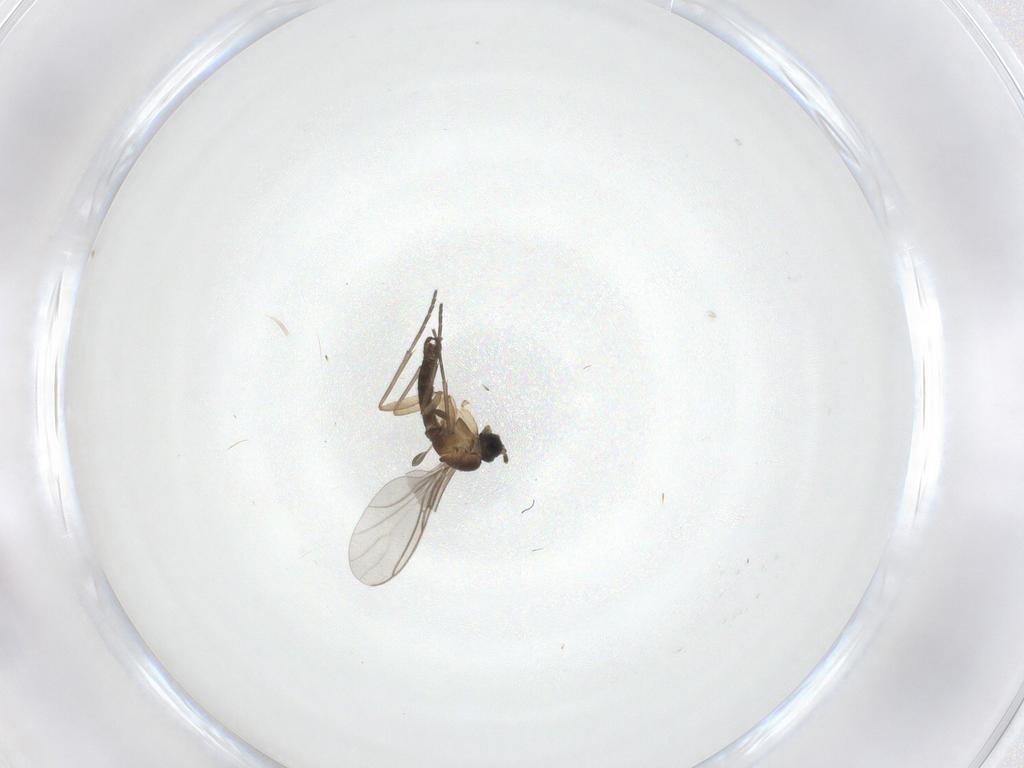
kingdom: Animalia
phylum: Arthropoda
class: Insecta
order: Diptera
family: Sciaridae
